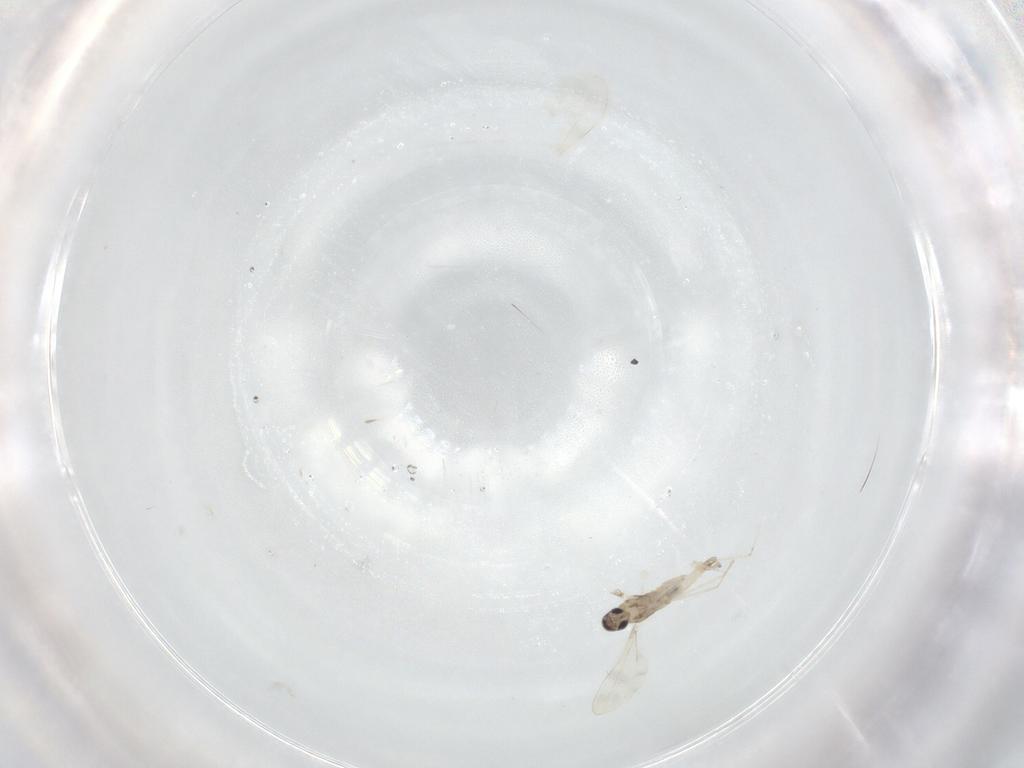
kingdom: Animalia
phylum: Arthropoda
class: Insecta
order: Diptera
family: Cecidomyiidae
